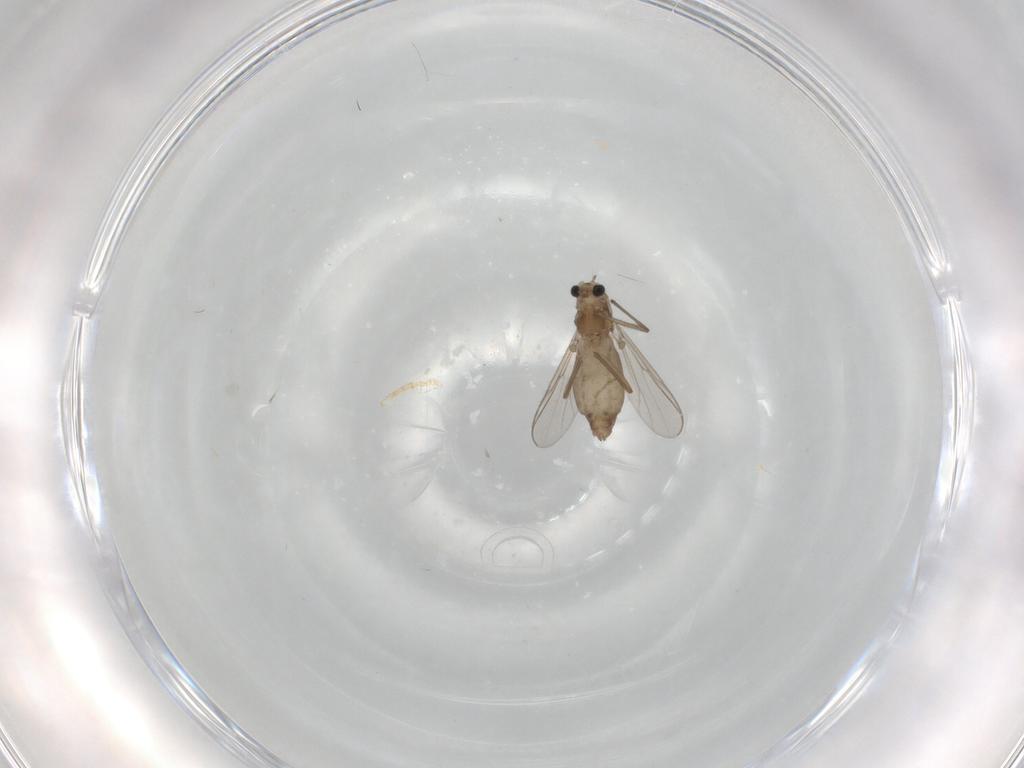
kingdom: Animalia
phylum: Arthropoda
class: Insecta
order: Diptera
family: Chironomidae
